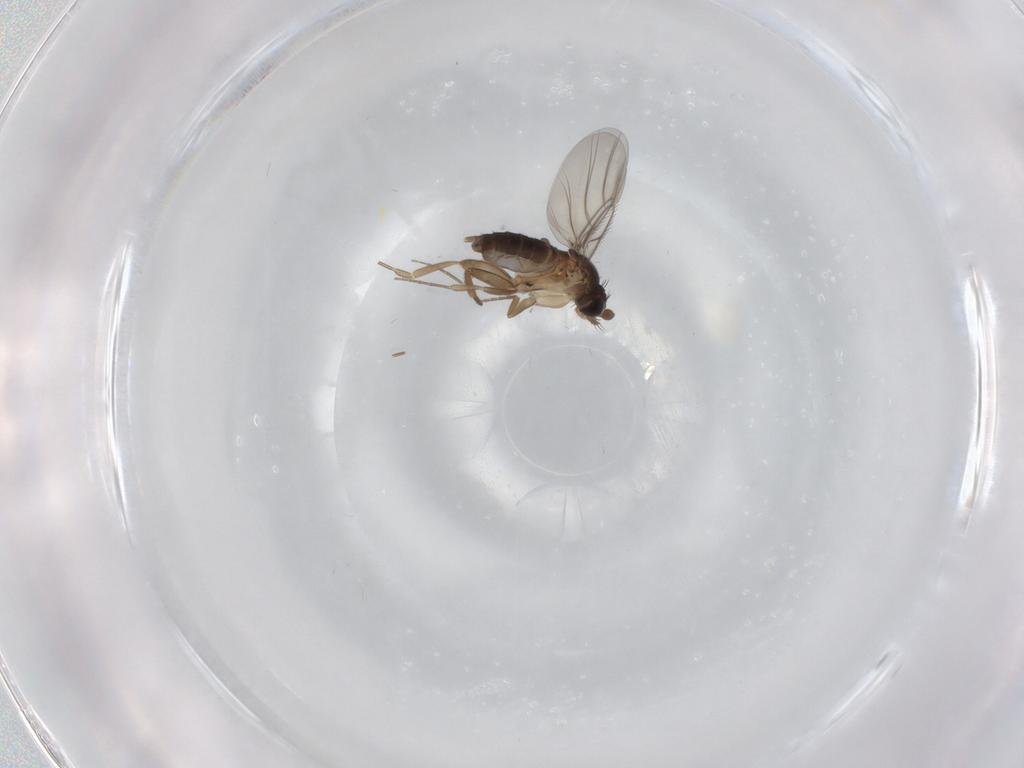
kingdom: Animalia
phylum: Arthropoda
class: Insecta
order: Diptera
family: Phoridae
